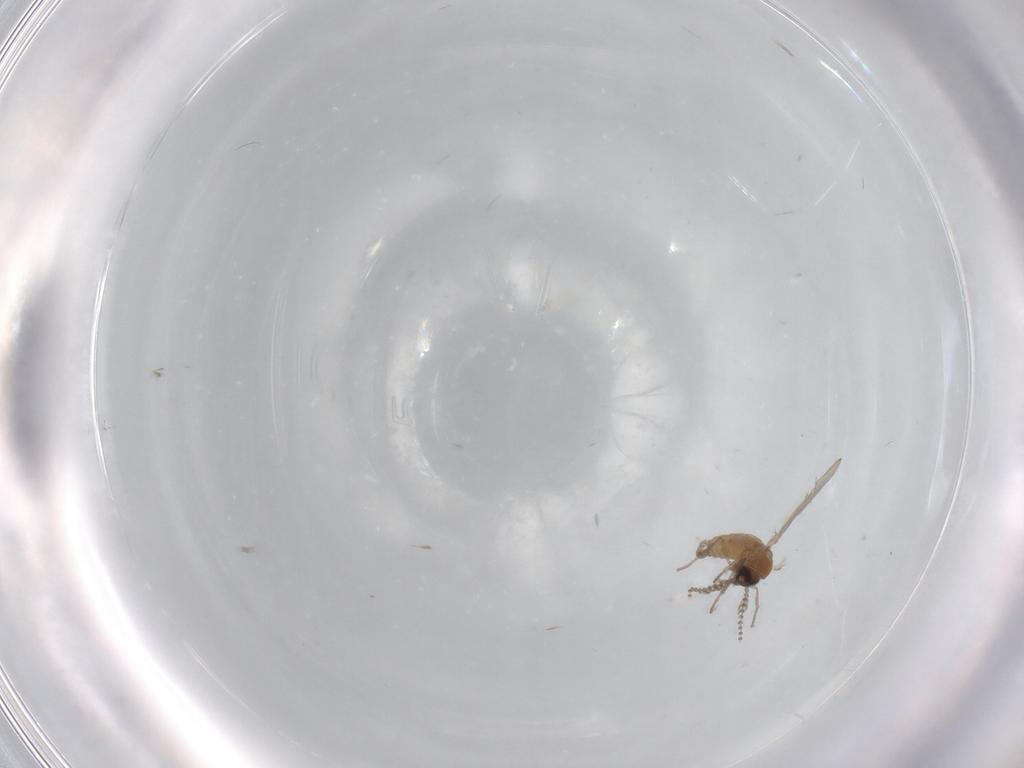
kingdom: Animalia
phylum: Arthropoda
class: Insecta
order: Diptera
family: Psychodidae
